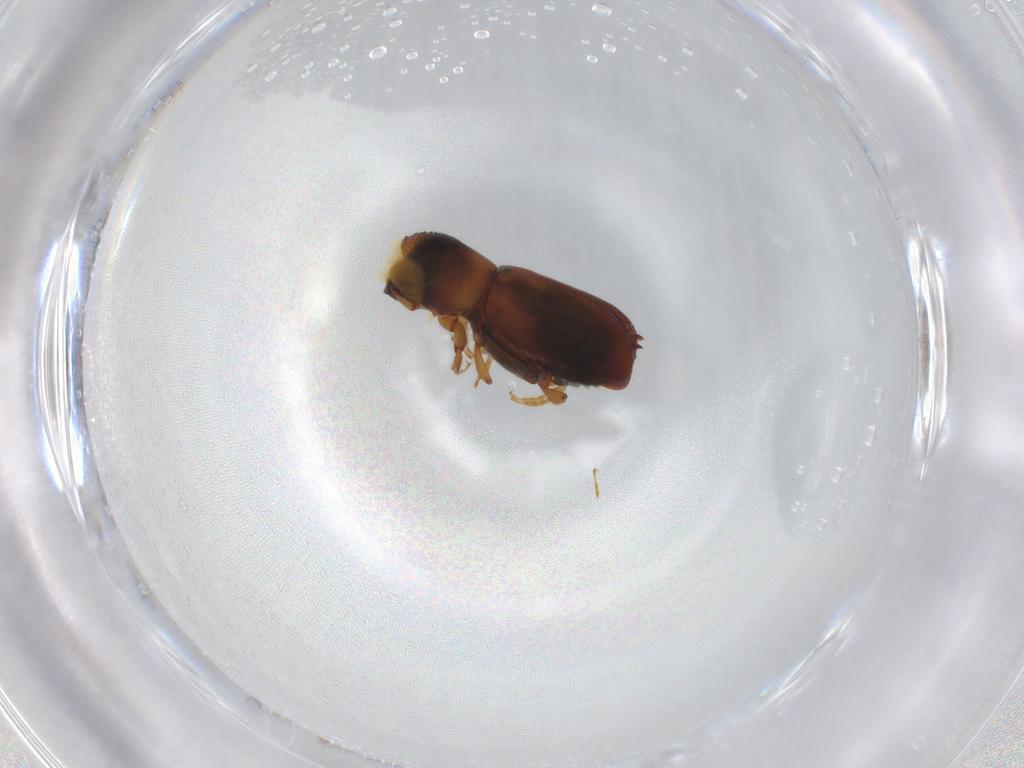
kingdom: Animalia
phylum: Arthropoda
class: Insecta
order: Coleoptera
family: Curculionidae
